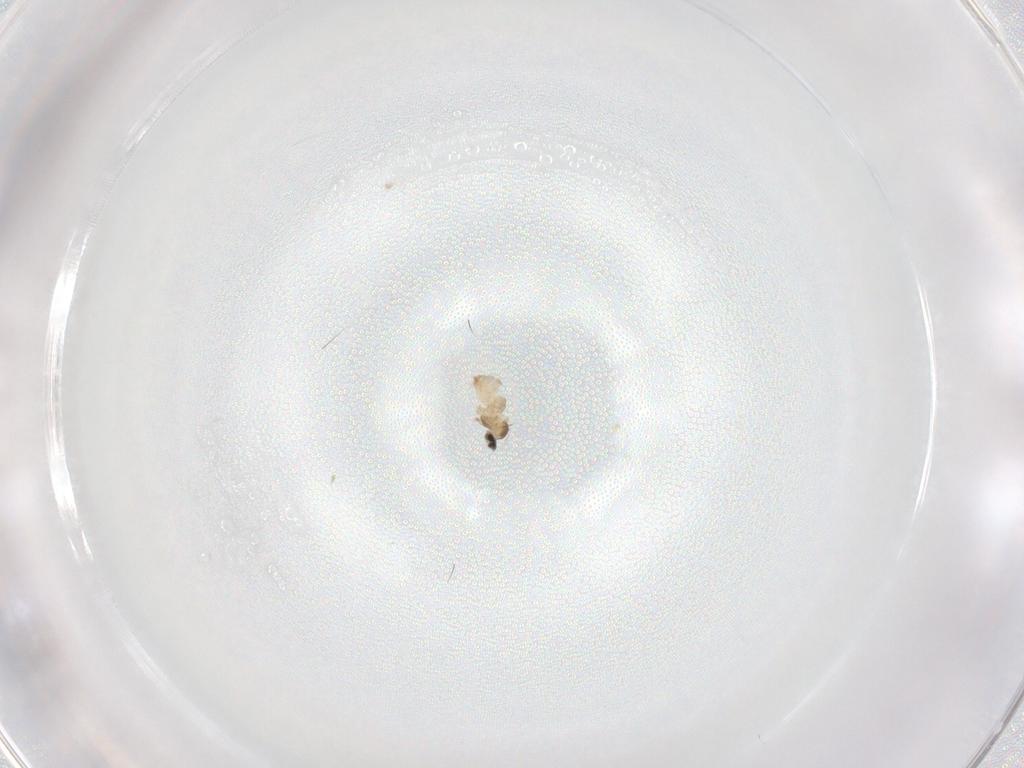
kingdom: Animalia
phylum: Arthropoda
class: Insecta
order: Diptera
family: Cecidomyiidae
